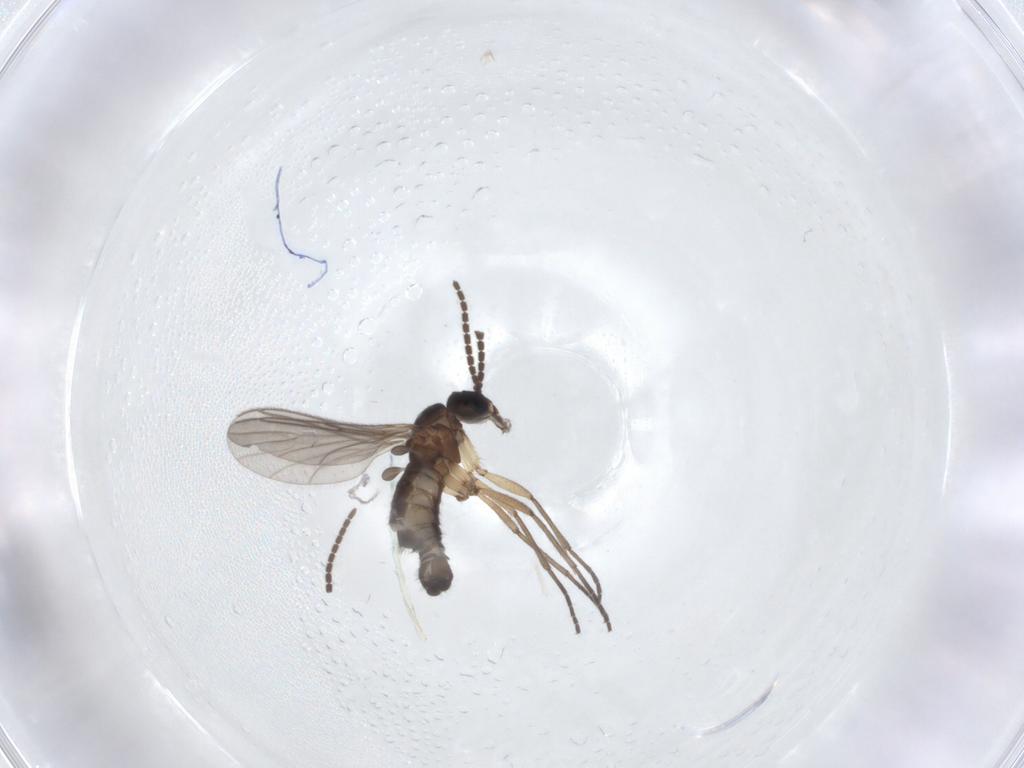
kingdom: Animalia
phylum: Arthropoda
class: Insecta
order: Diptera
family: Sciaridae
